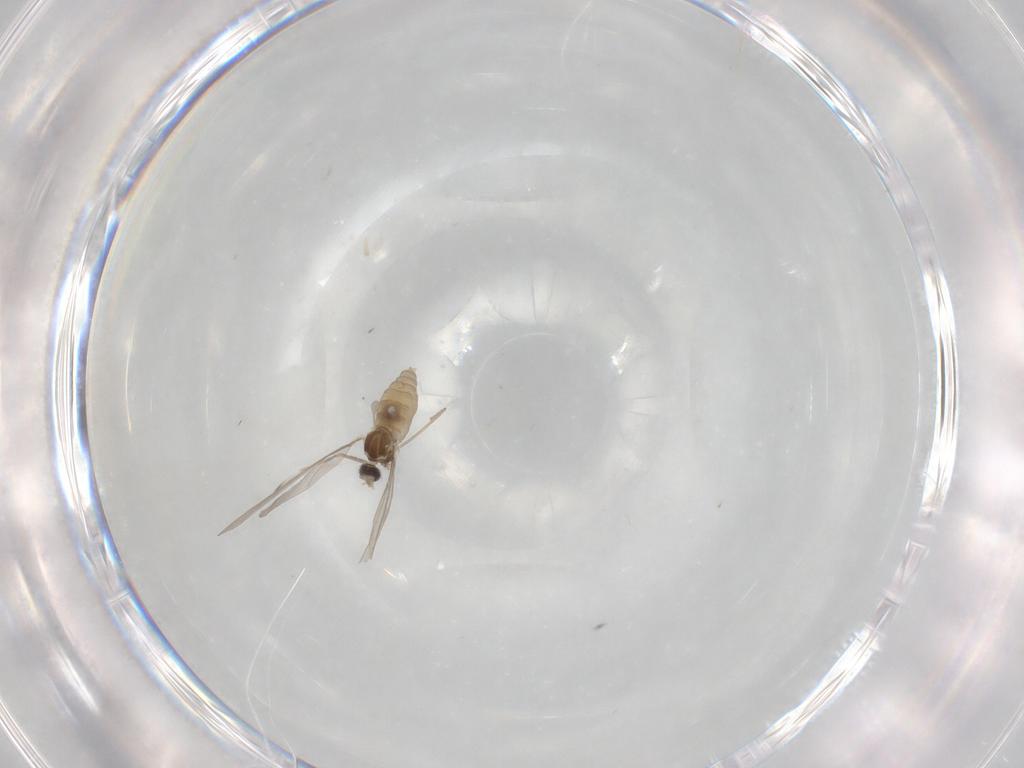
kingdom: Animalia
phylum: Arthropoda
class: Insecta
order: Diptera
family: Cecidomyiidae
